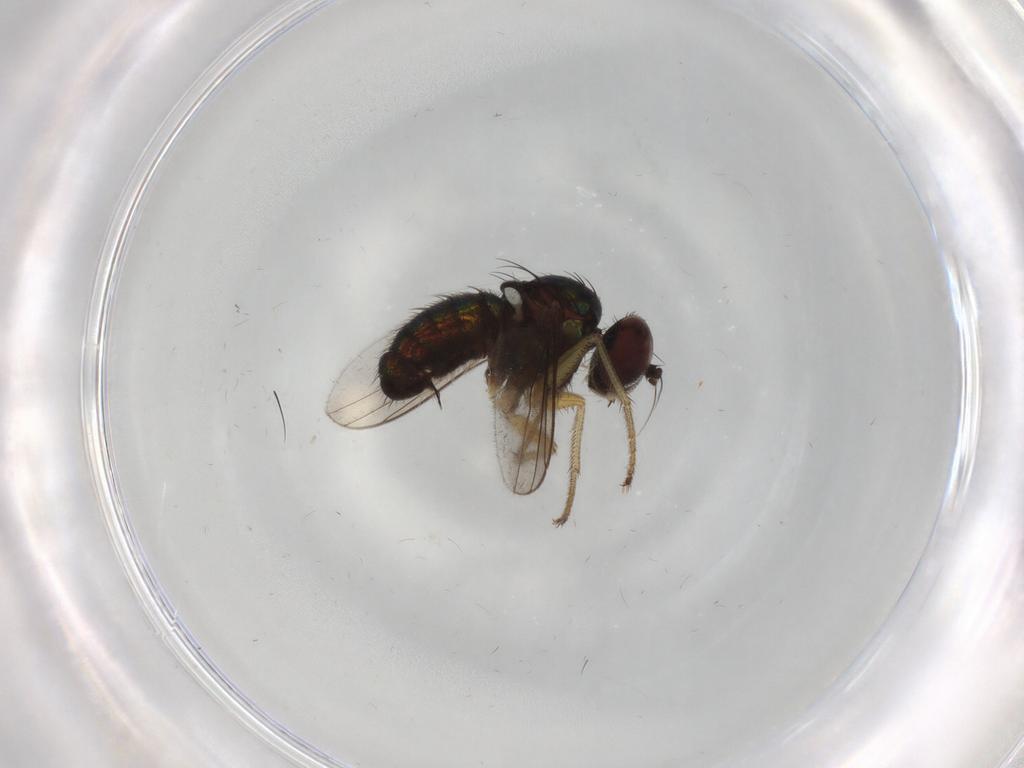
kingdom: Animalia
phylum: Arthropoda
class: Insecta
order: Diptera
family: Dolichopodidae
